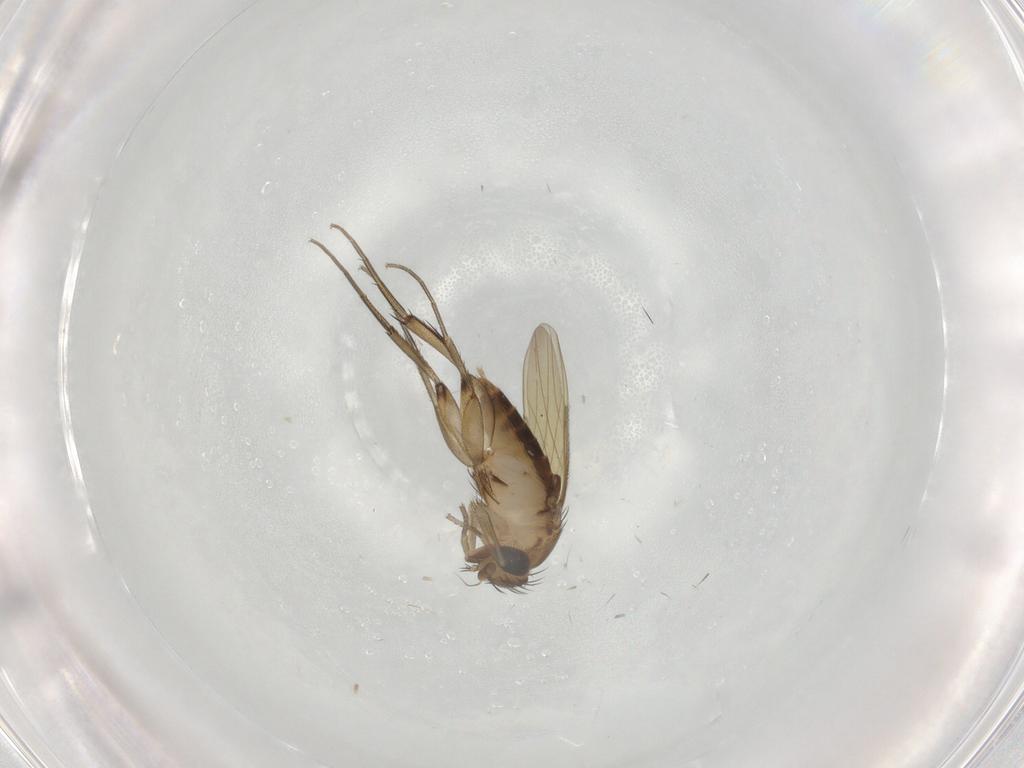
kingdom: Animalia
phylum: Arthropoda
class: Insecta
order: Diptera
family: Phoridae
